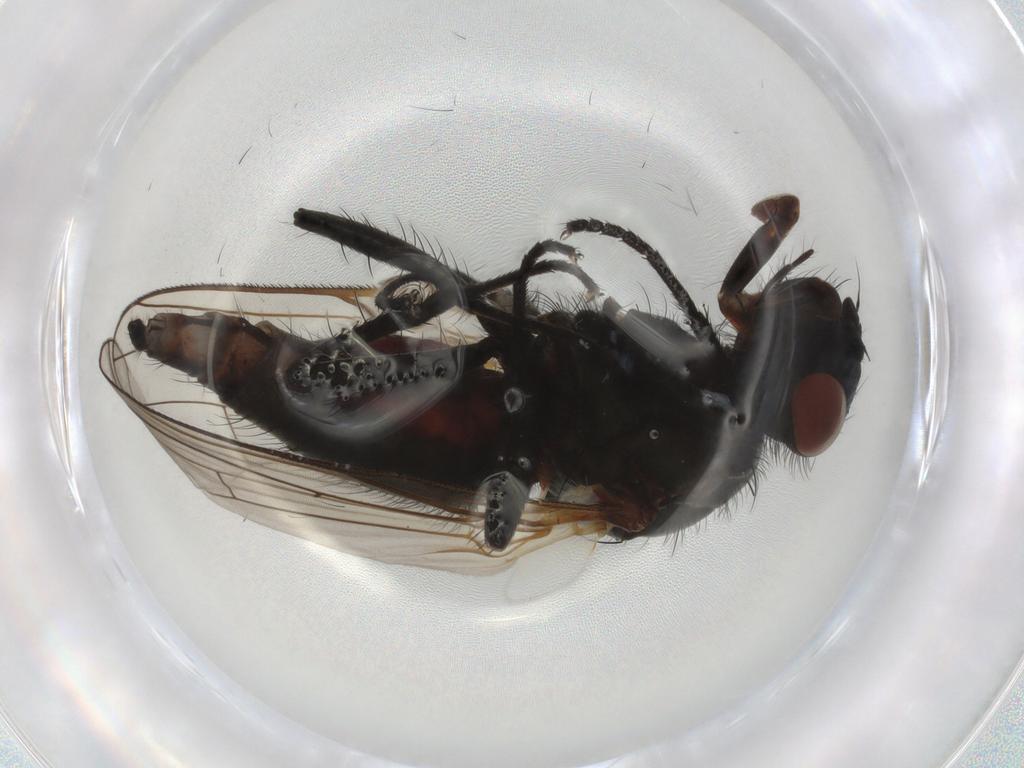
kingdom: Animalia
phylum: Arthropoda
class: Insecta
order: Diptera
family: Anthomyiidae
